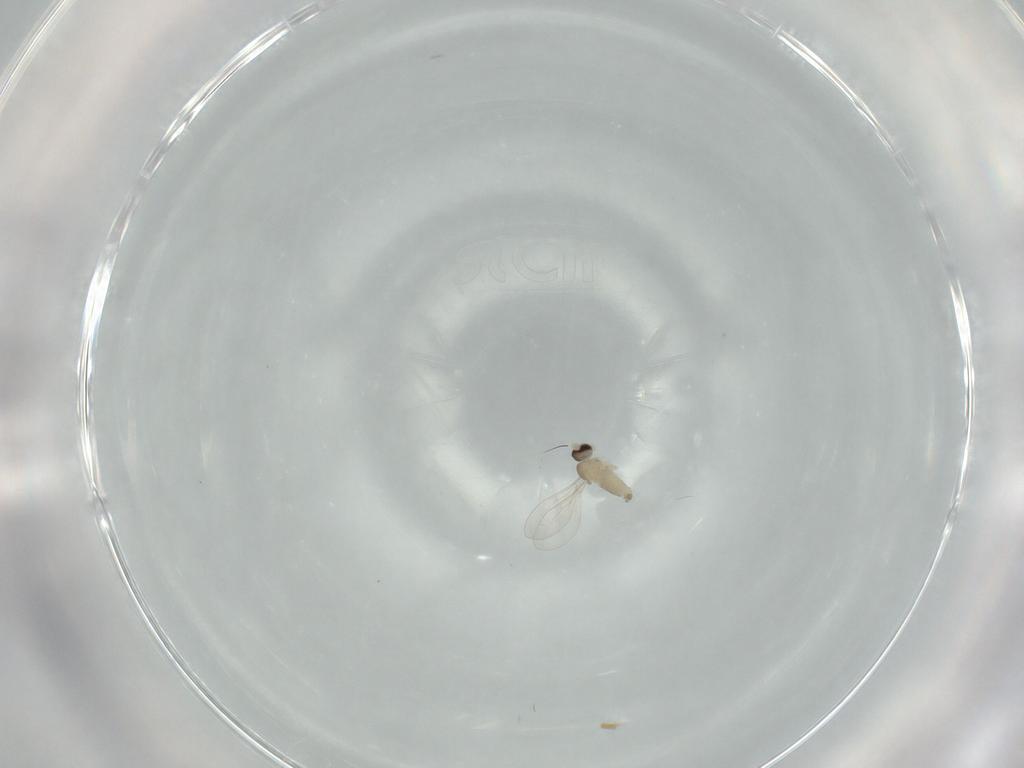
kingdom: Animalia
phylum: Arthropoda
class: Insecta
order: Diptera
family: Cecidomyiidae
